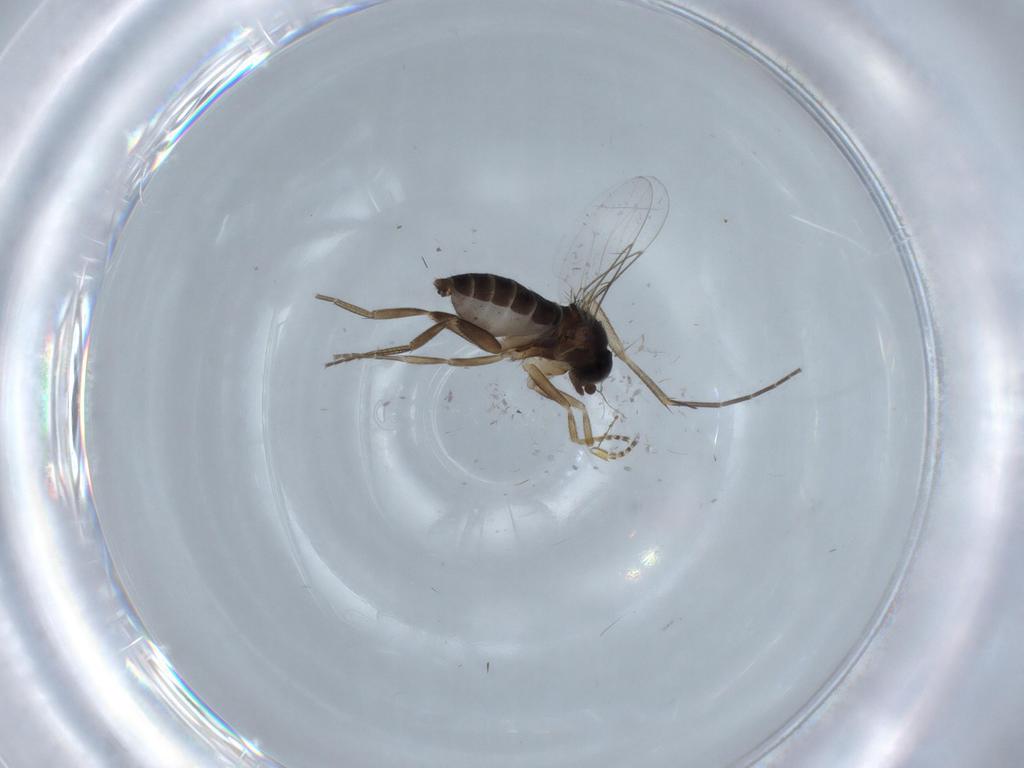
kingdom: Animalia
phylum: Arthropoda
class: Insecta
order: Diptera
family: Phoridae
